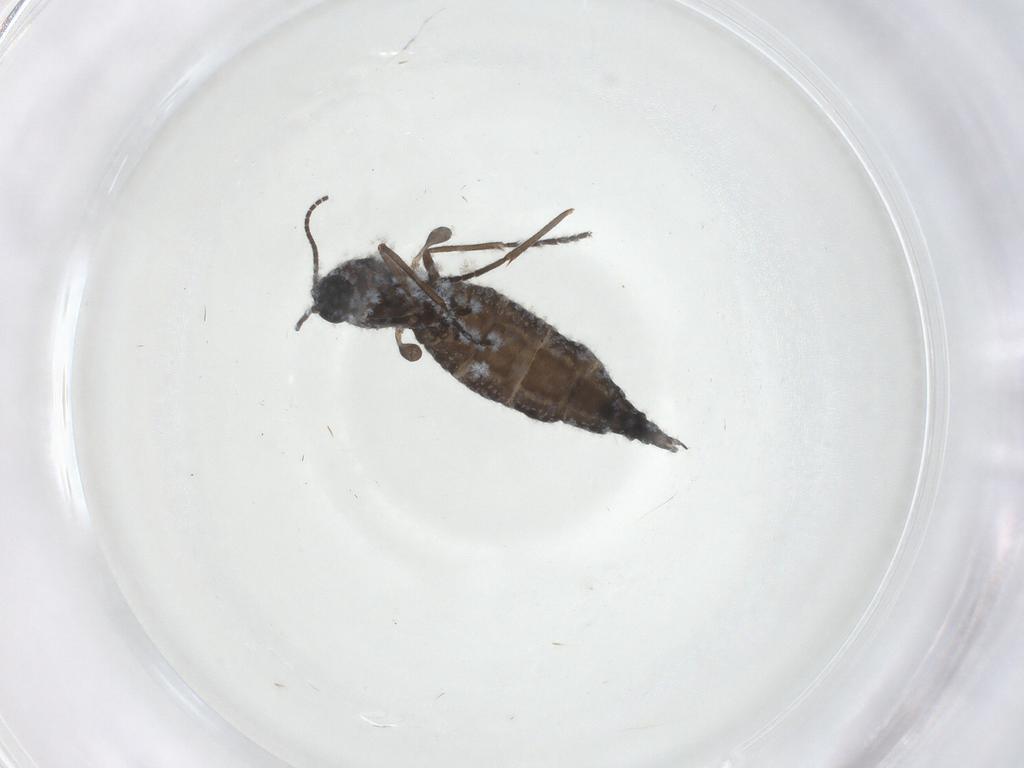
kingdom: Animalia
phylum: Arthropoda
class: Insecta
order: Diptera
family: Sciaridae
